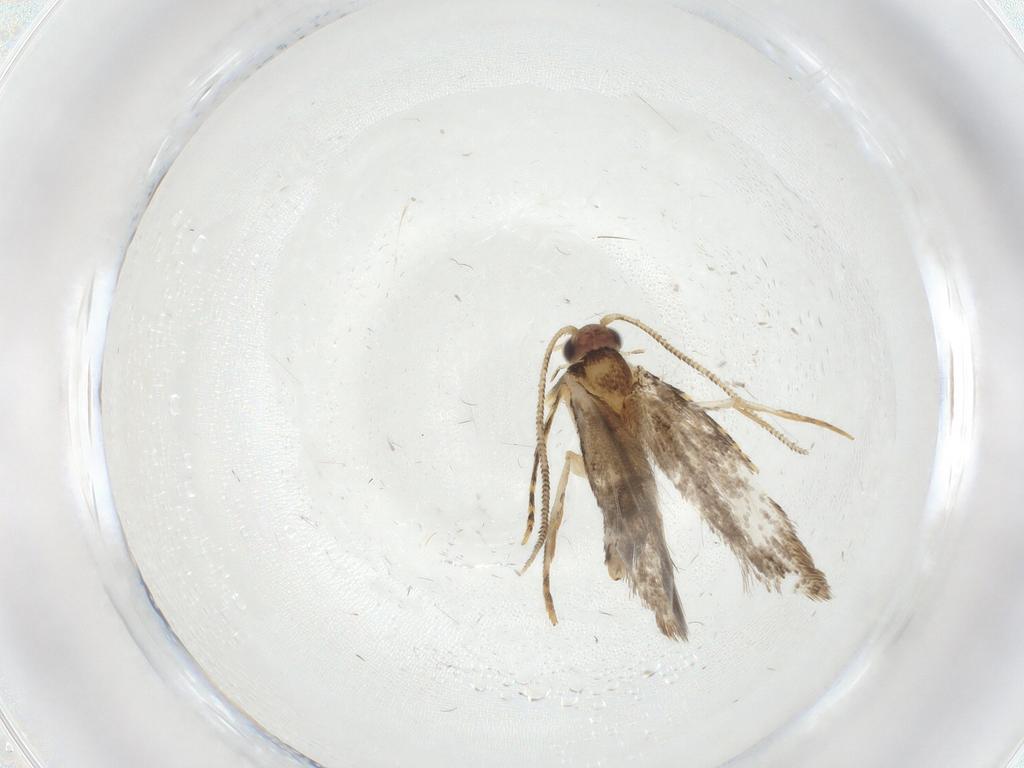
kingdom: Animalia
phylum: Arthropoda
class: Insecta
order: Lepidoptera
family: Tineidae
